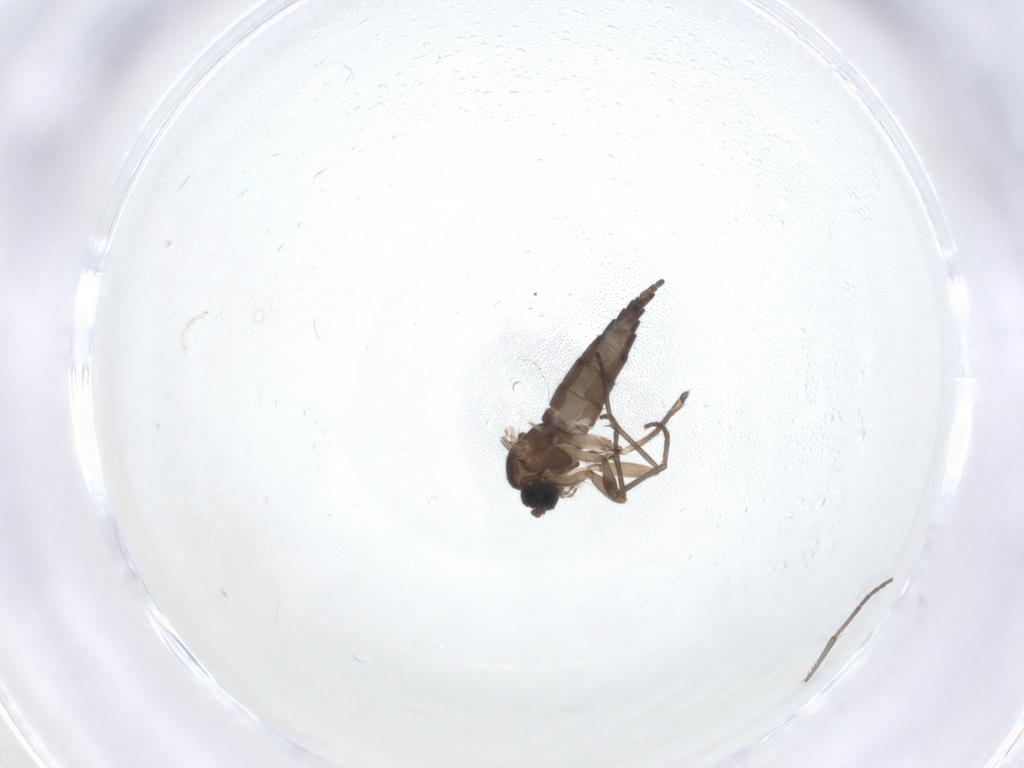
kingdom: Animalia
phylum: Arthropoda
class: Insecta
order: Diptera
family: Sciaridae
